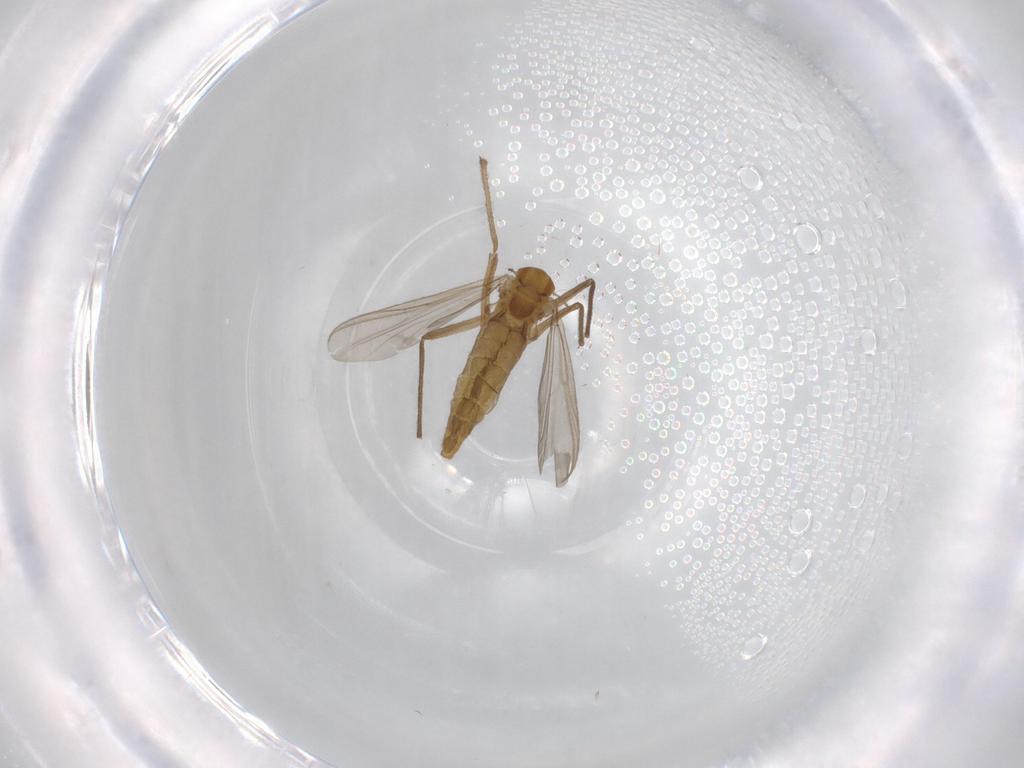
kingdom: Animalia
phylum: Arthropoda
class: Insecta
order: Diptera
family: Chironomidae
